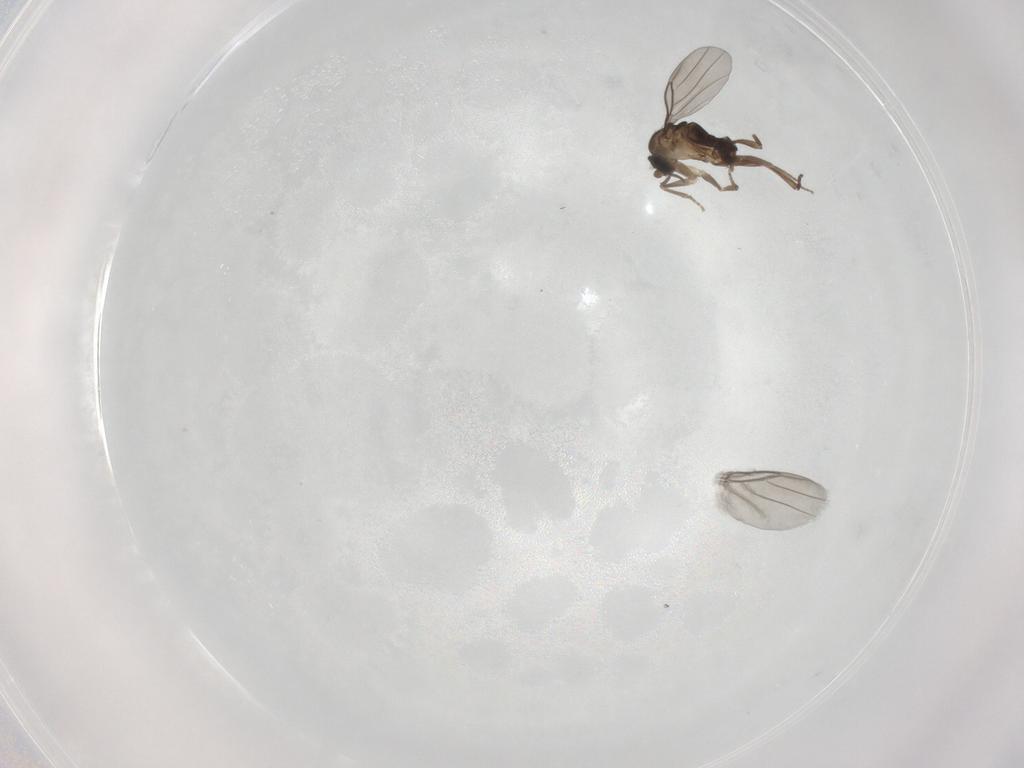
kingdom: Animalia
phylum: Arthropoda
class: Insecta
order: Diptera
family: Phoridae
